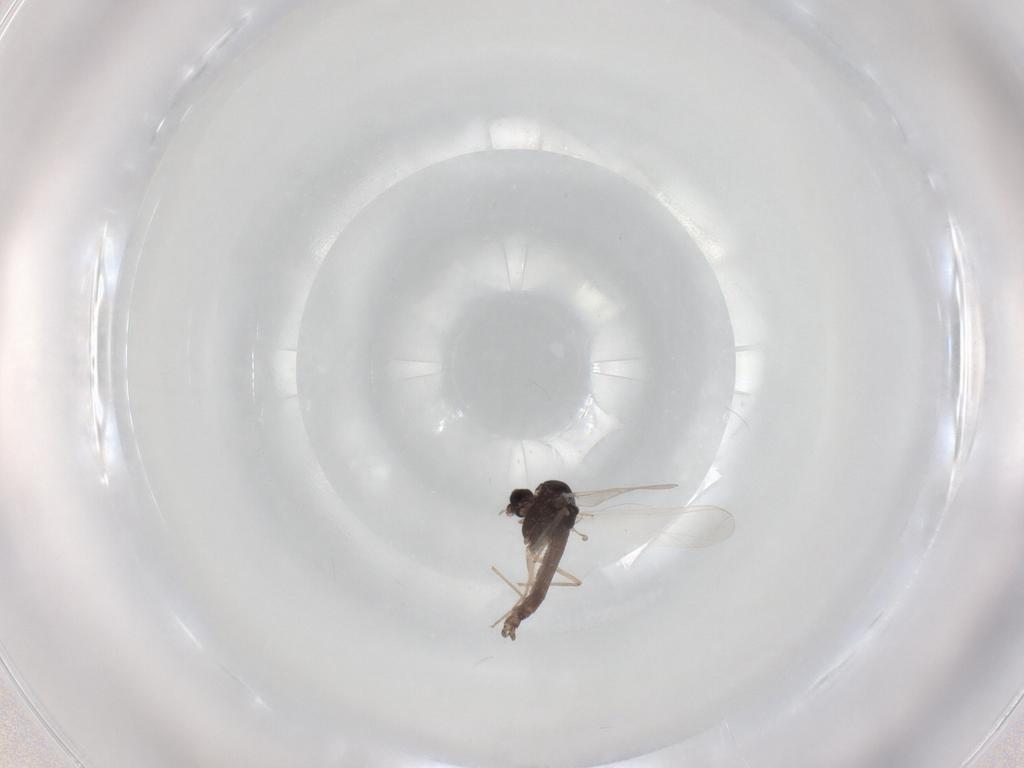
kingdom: Animalia
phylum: Arthropoda
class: Insecta
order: Diptera
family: Chironomidae
